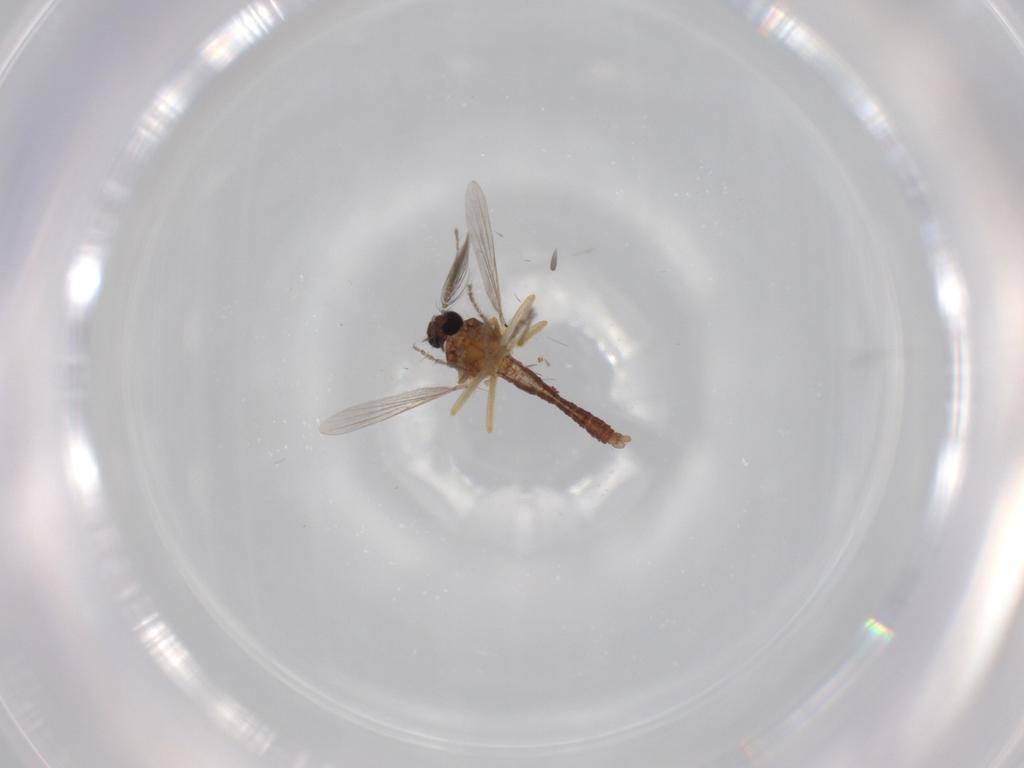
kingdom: Animalia
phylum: Arthropoda
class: Insecta
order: Diptera
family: Ceratopogonidae
